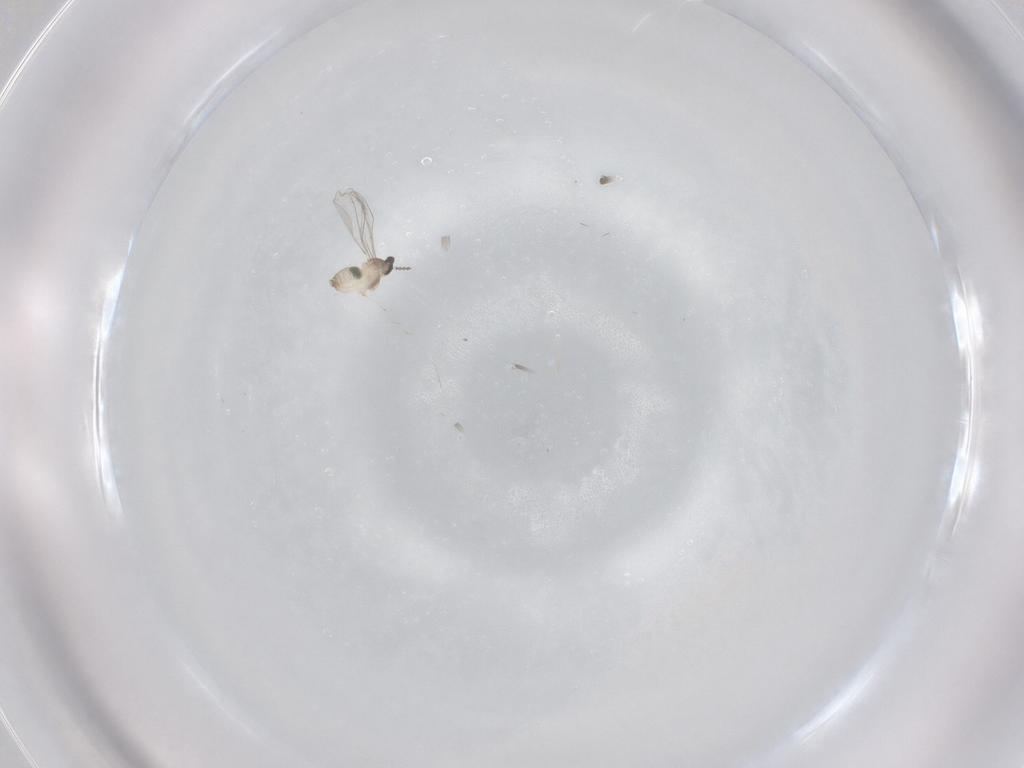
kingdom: Animalia
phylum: Arthropoda
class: Insecta
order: Diptera
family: Cecidomyiidae
